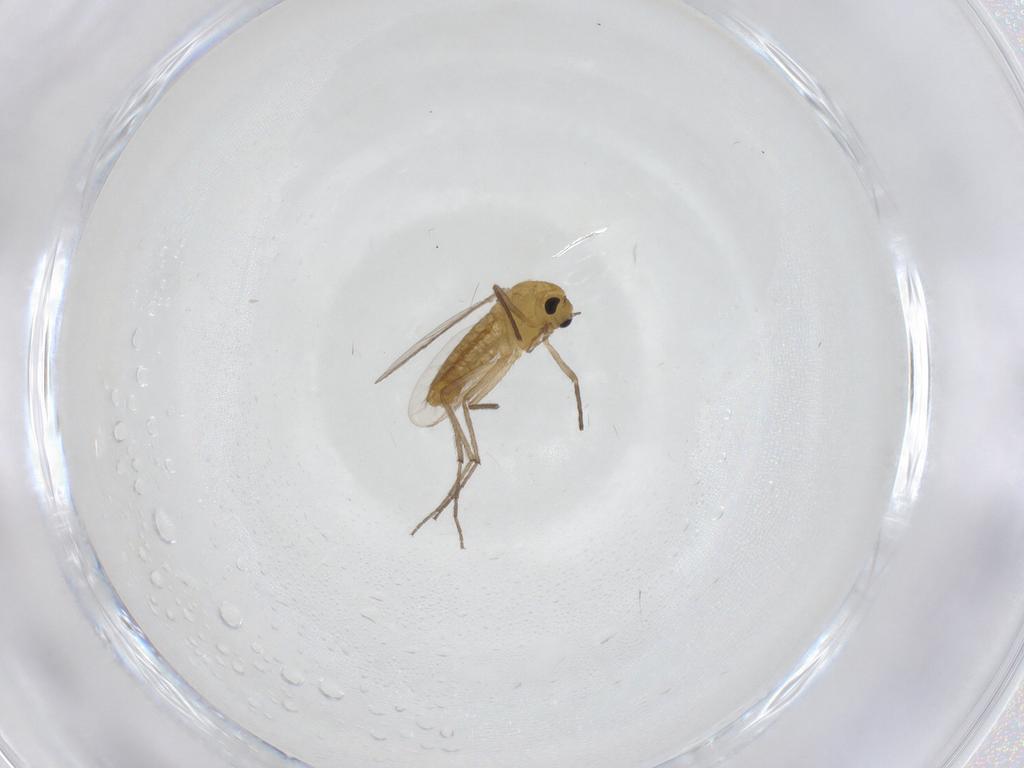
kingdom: Animalia
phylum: Arthropoda
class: Insecta
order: Diptera
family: Chironomidae
